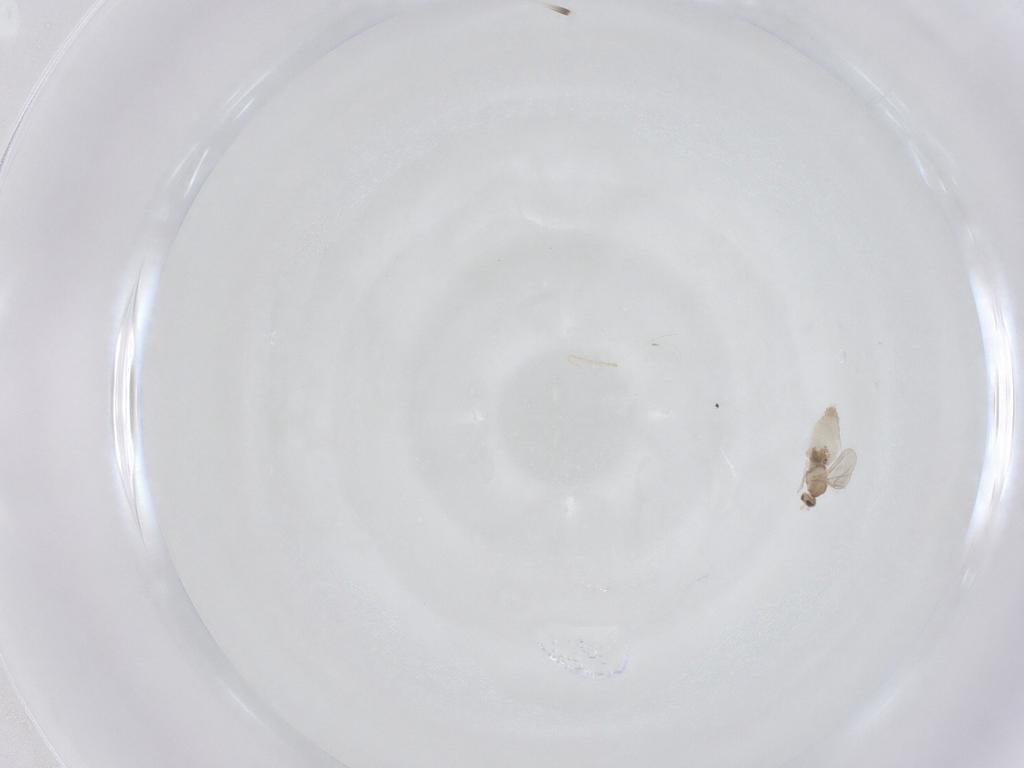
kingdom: Animalia
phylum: Arthropoda
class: Insecta
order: Diptera
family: Cecidomyiidae
